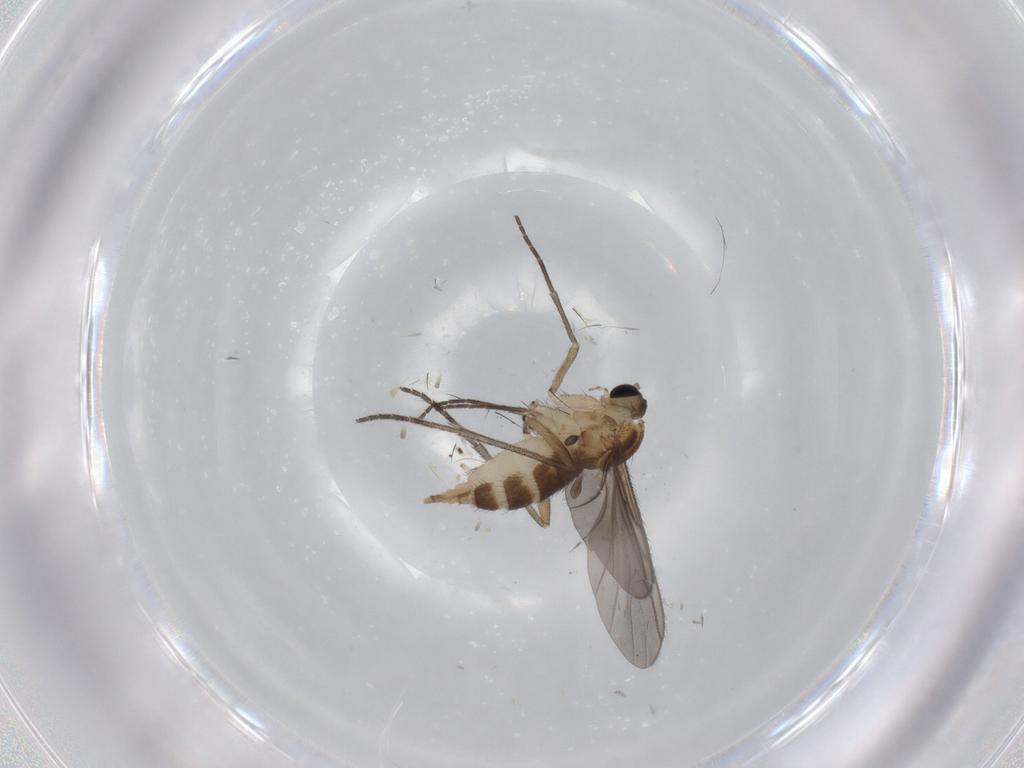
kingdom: Animalia
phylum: Arthropoda
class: Insecta
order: Diptera
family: Sciaridae
